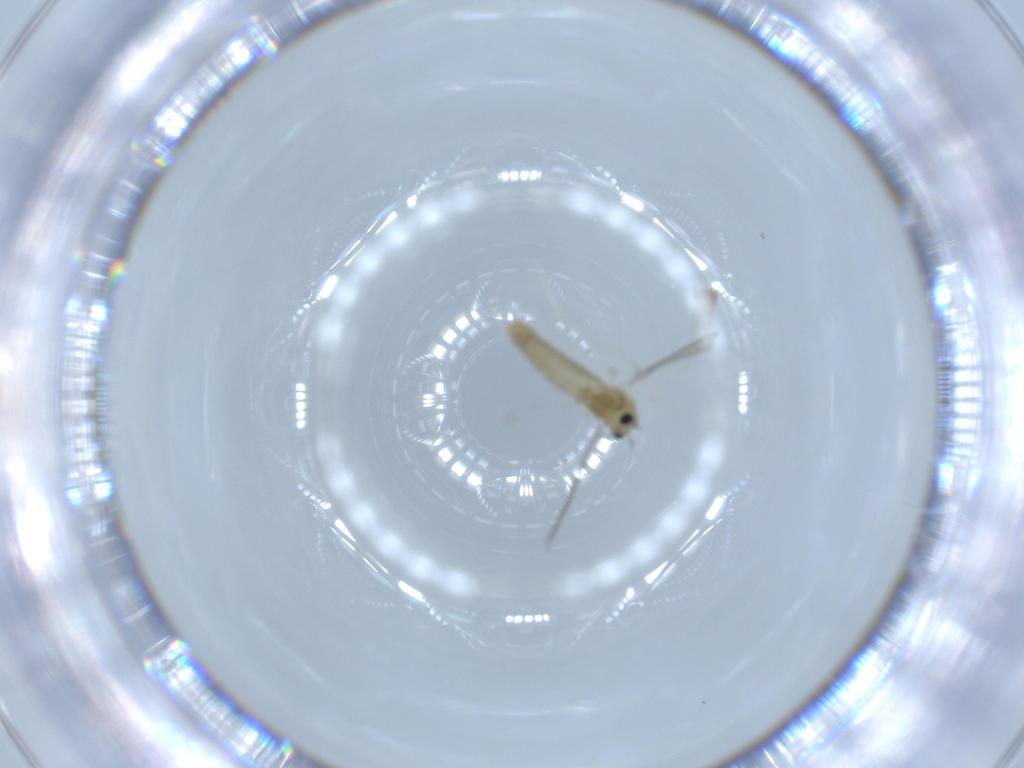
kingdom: Animalia
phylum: Arthropoda
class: Insecta
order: Diptera
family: Chironomidae
